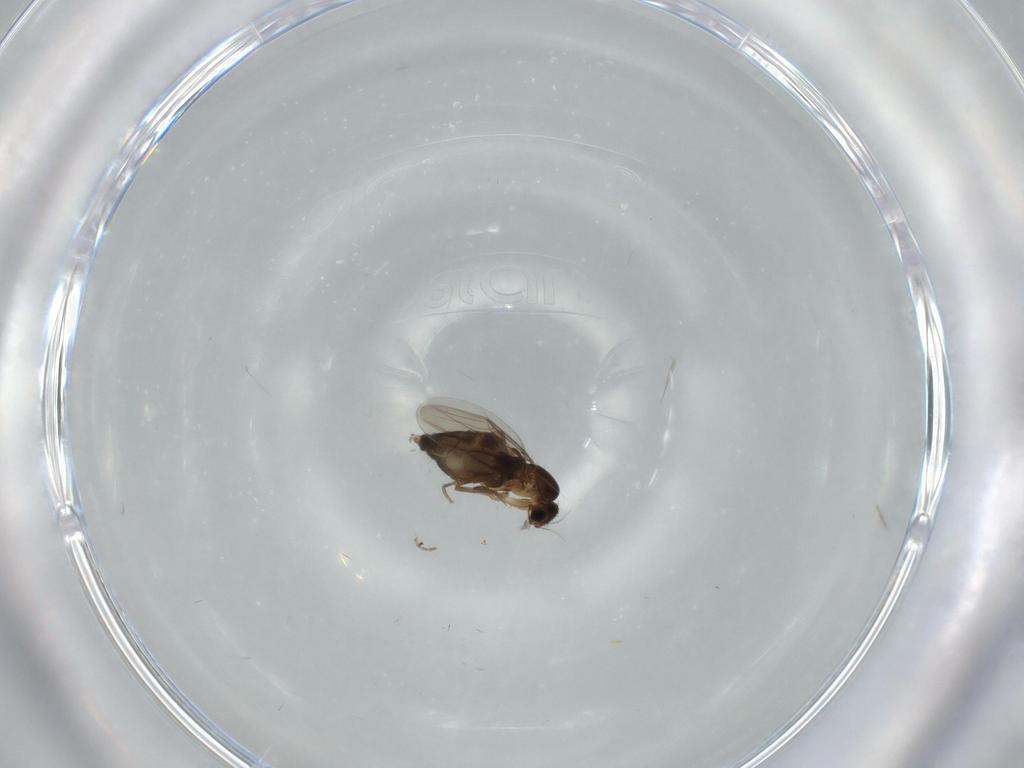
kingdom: Animalia
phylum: Arthropoda
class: Insecta
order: Diptera
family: Phoridae
